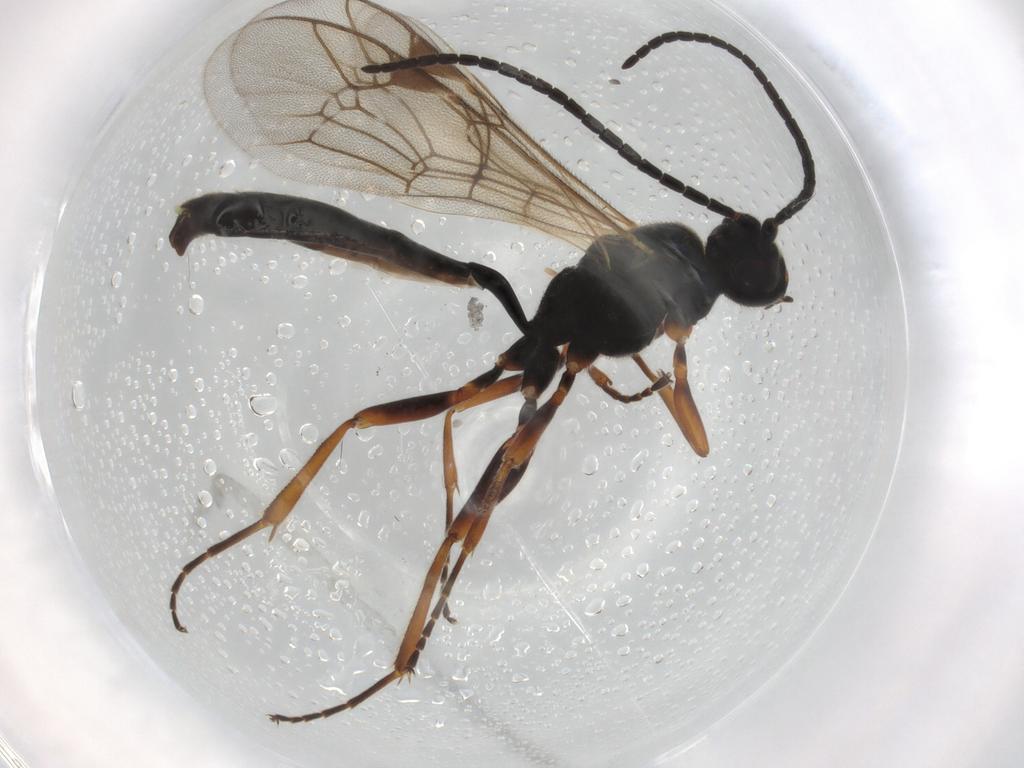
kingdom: Animalia
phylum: Arthropoda
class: Insecta
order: Hymenoptera
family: Ichneumonidae
